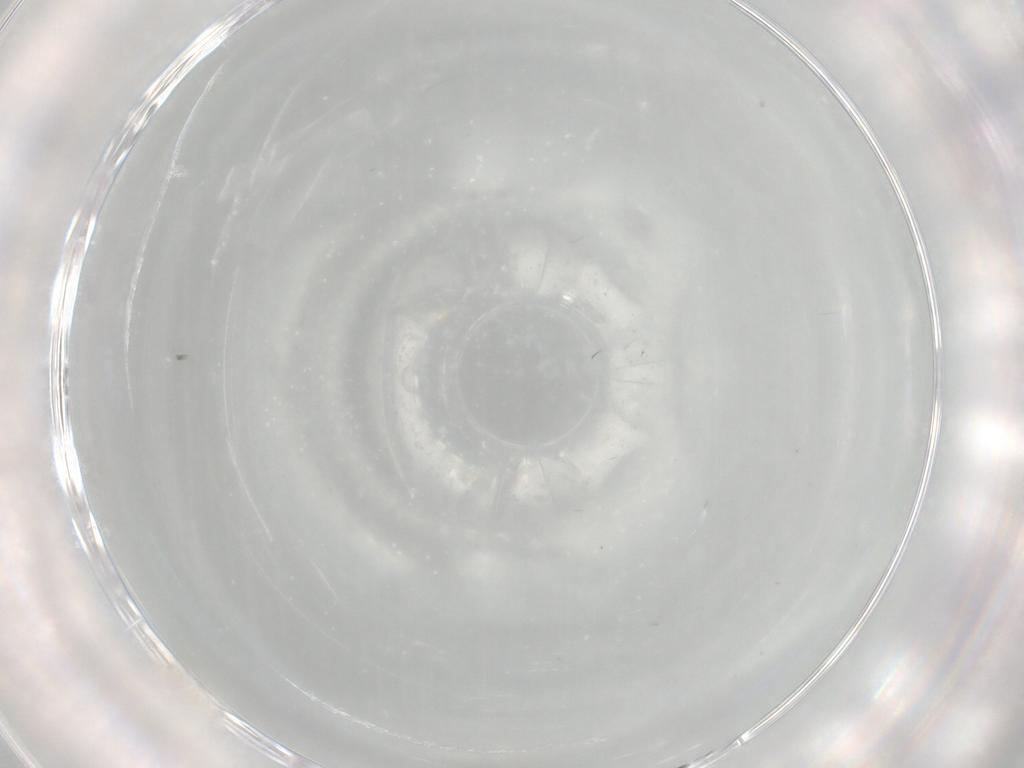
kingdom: Animalia
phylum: Arthropoda
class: Insecta
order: Diptera
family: Cecidomyiidae
